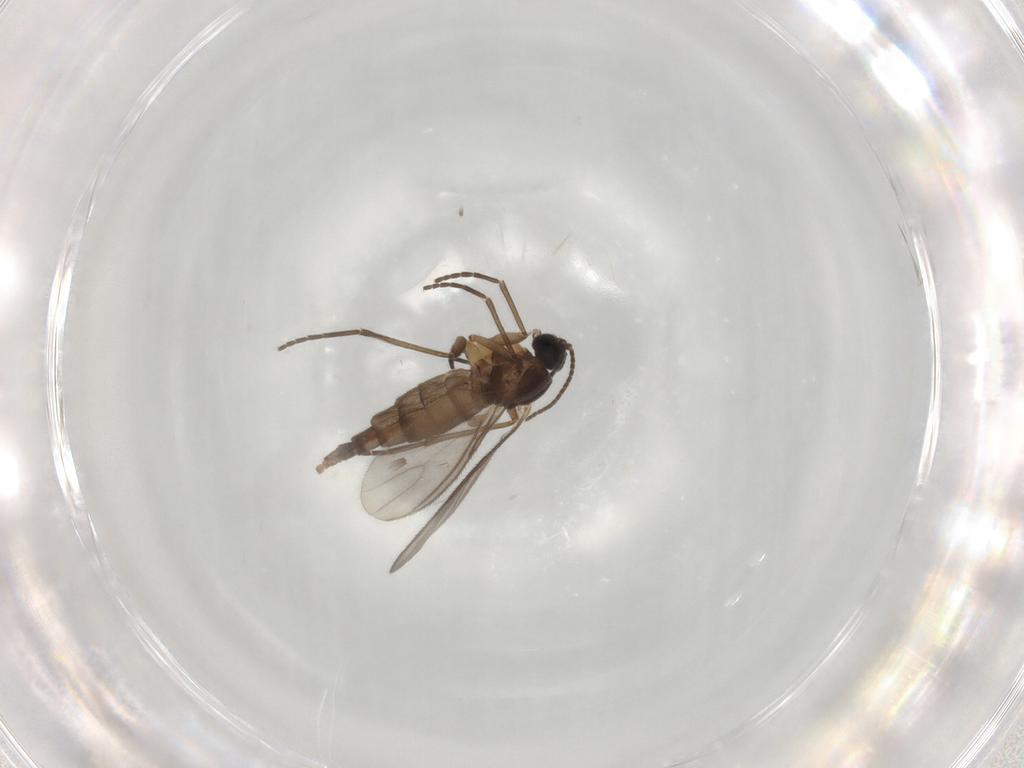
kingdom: Animalia
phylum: Arthropoda
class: Insecta
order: Diptera
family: Sciaridae
